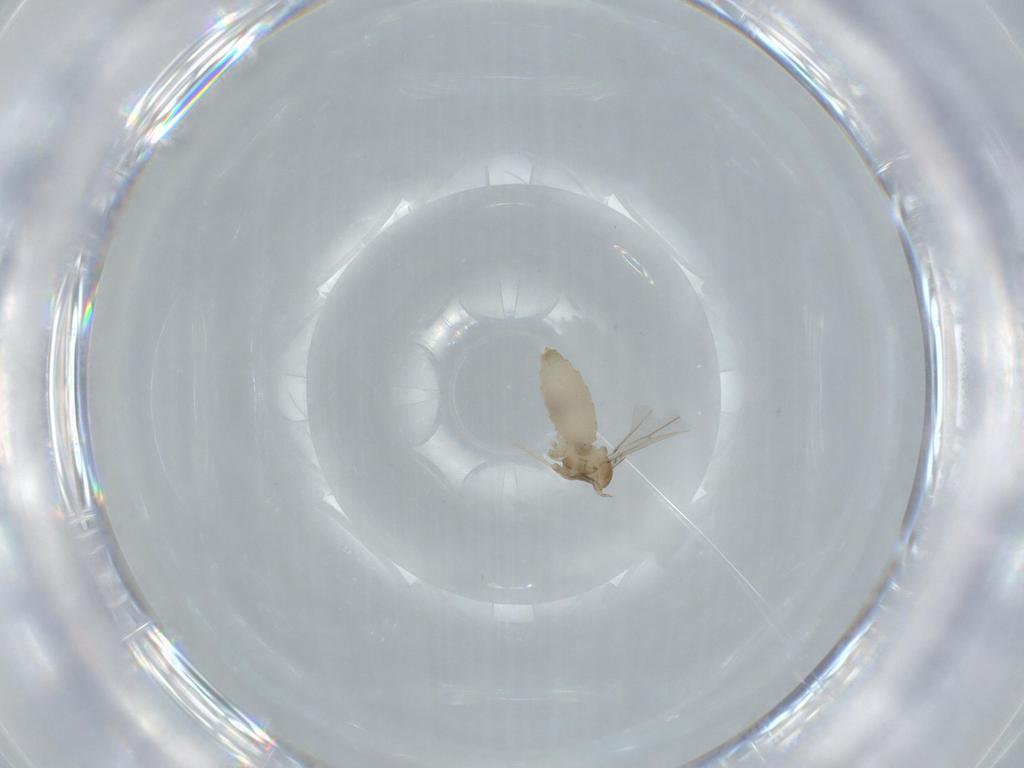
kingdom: Animalia
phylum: Arthropoda
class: Insecta
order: Diptera
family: Cecidomyiidae
